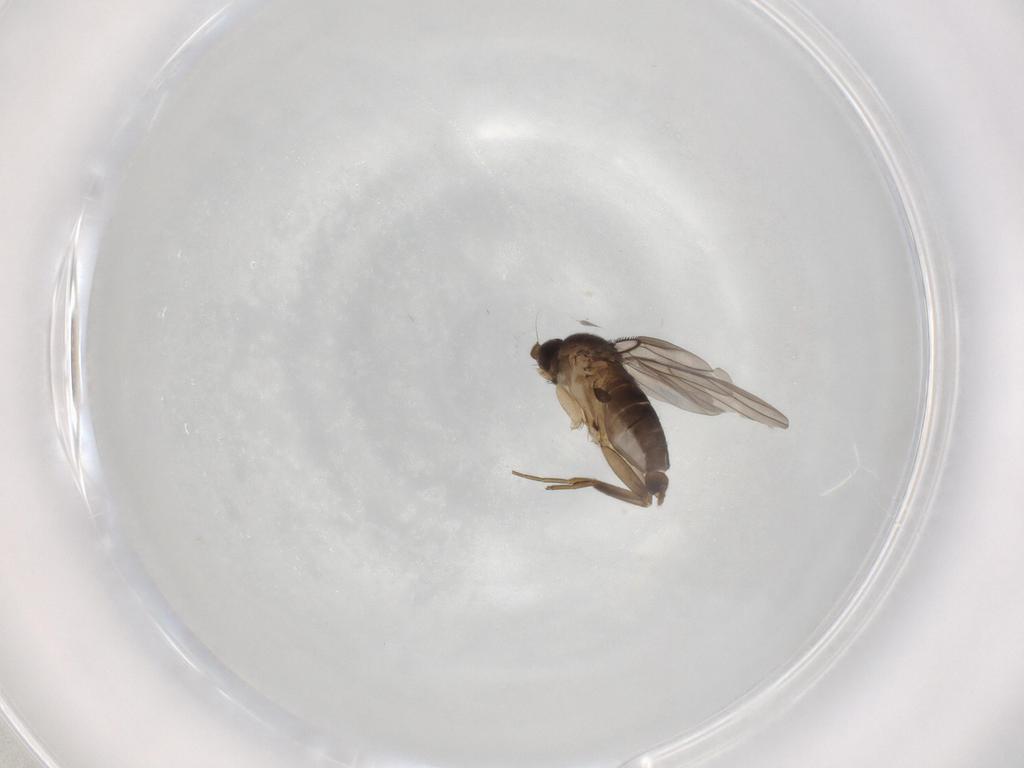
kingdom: Animalia
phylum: Arthropoda
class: Insecta
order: Diptera
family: Phoridae
